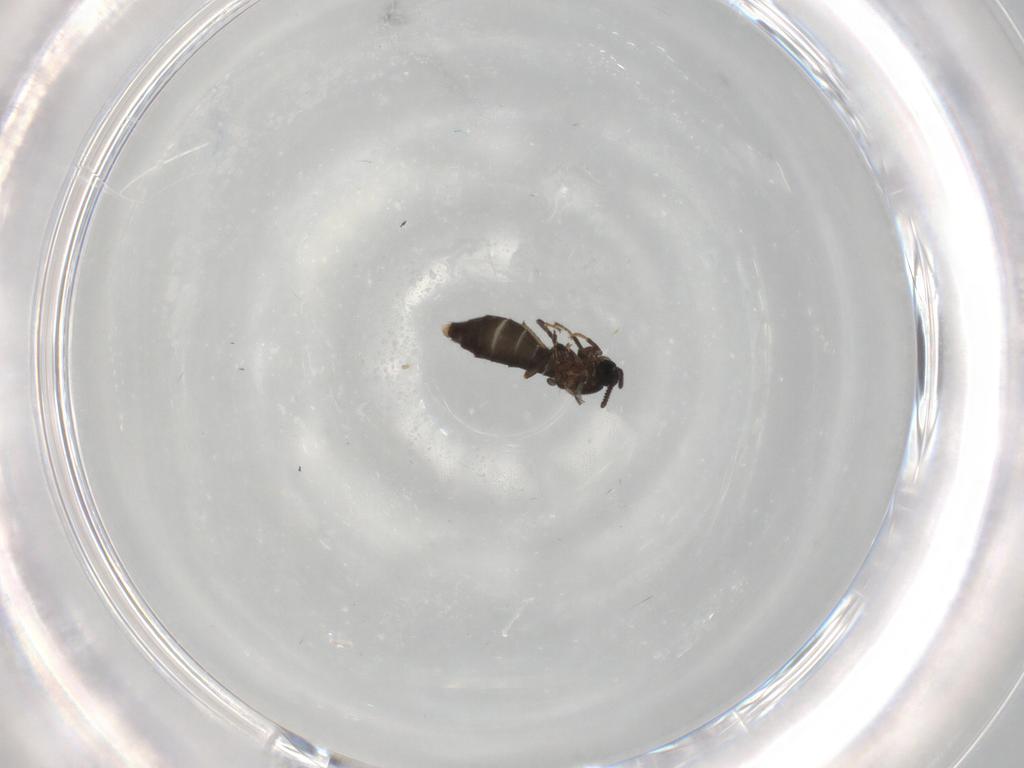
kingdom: Animalia
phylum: Arthropoda
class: Insecta
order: Diptera
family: Scatopsidae
